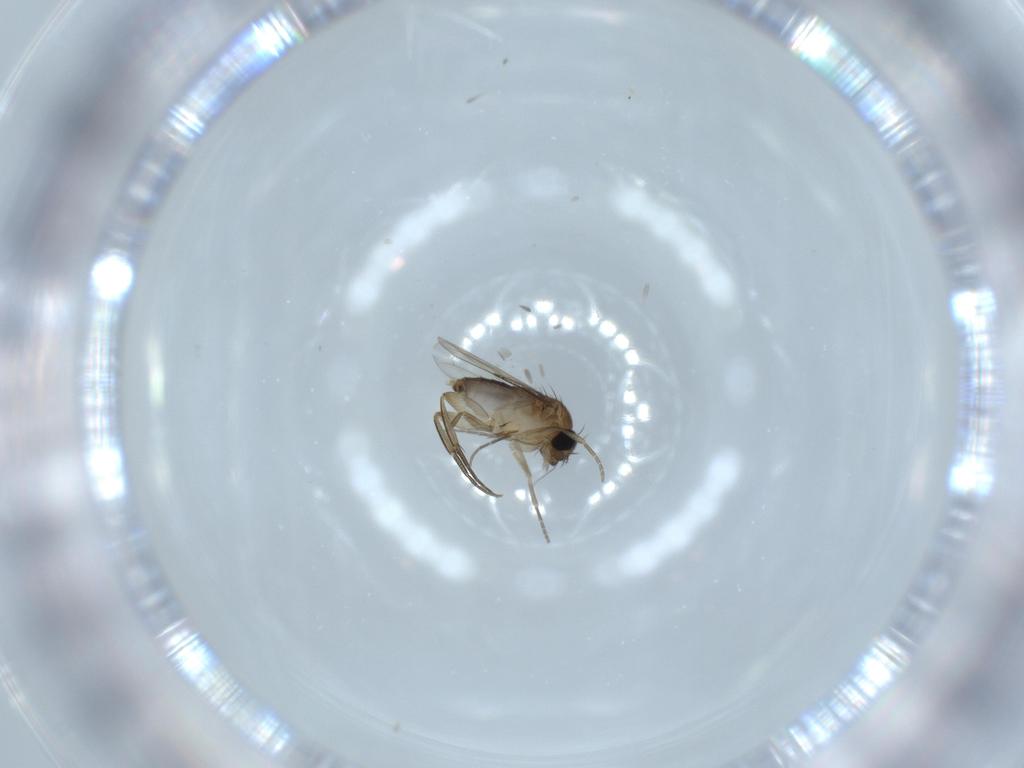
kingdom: Animalia
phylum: Arthropoda
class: Insecta
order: Diptera
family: Phoridae
